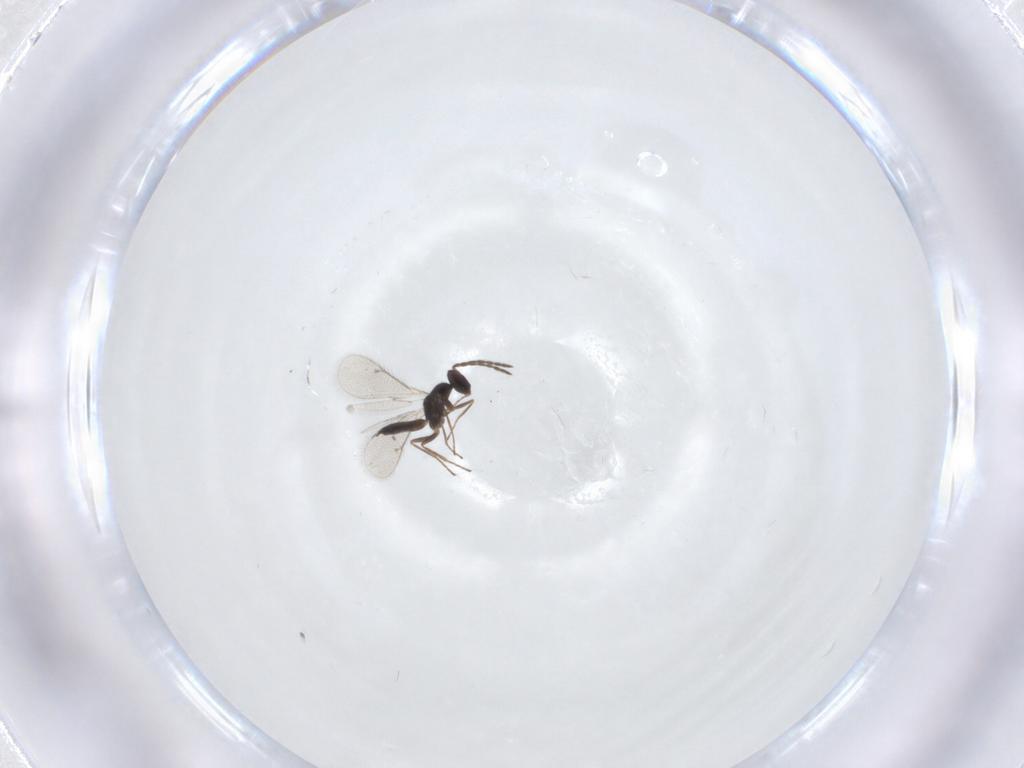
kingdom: Animalia
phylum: Arthropoda
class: Insecta
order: Hymenoptera
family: Eulophidae
